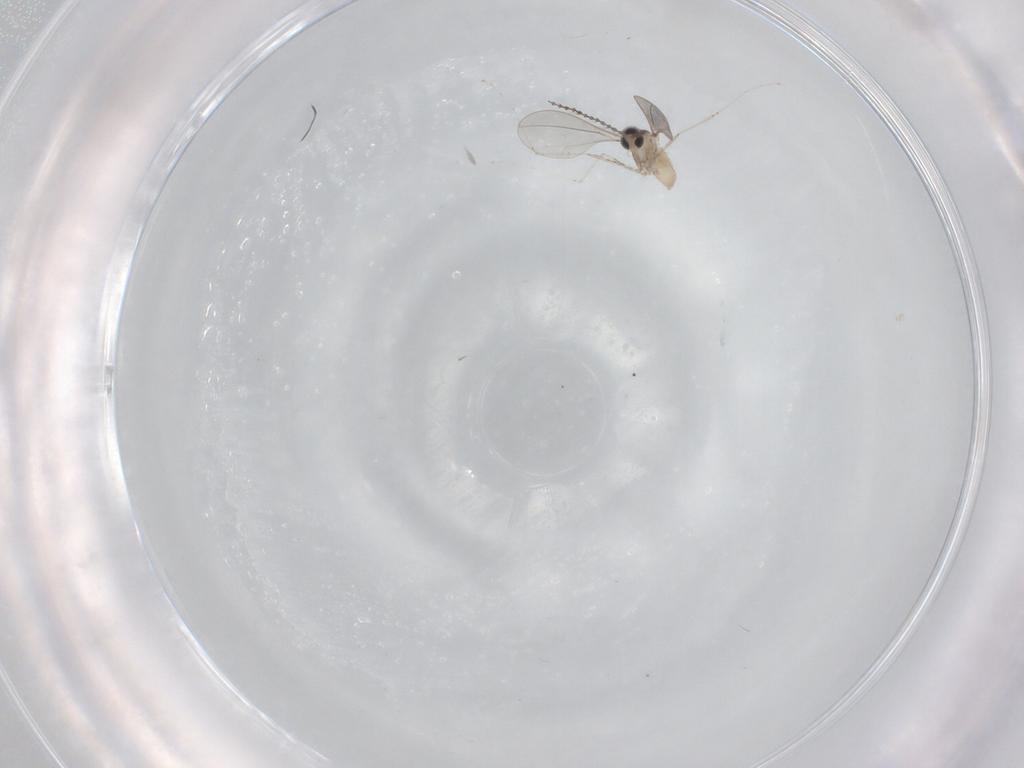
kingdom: Animalia
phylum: Arthropoda
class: Insecta
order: Diptera
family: Cecidomyiidae
